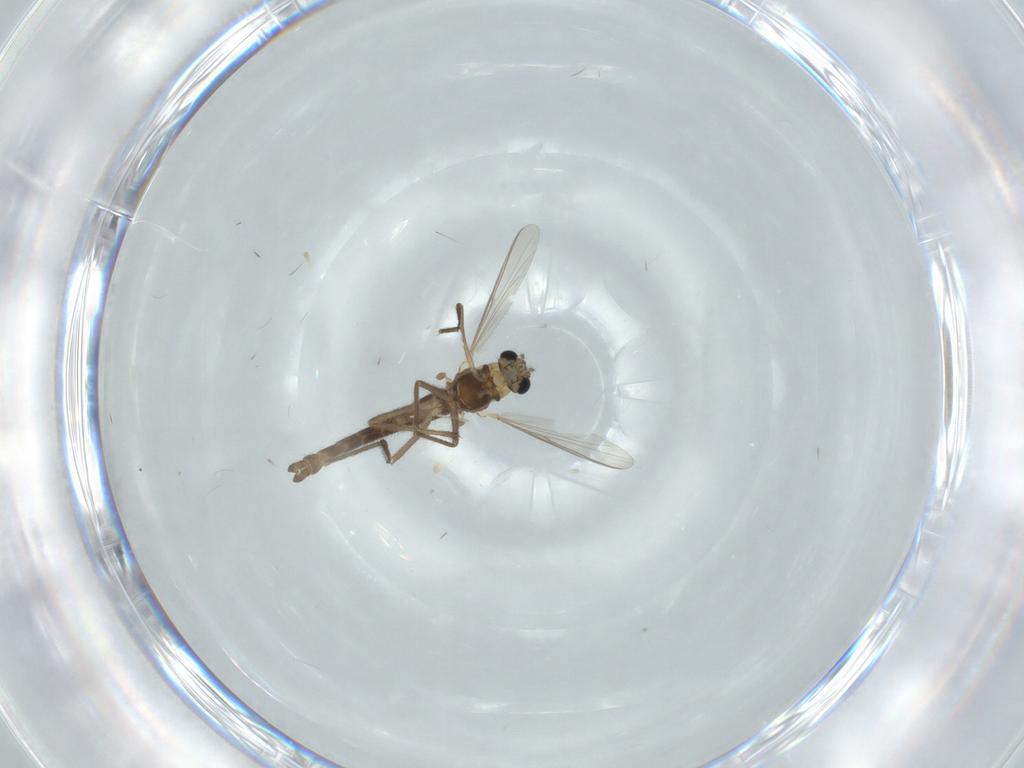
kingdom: Animalia
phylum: Arthropoda
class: Insecta
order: Diptera
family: Chironomidae
